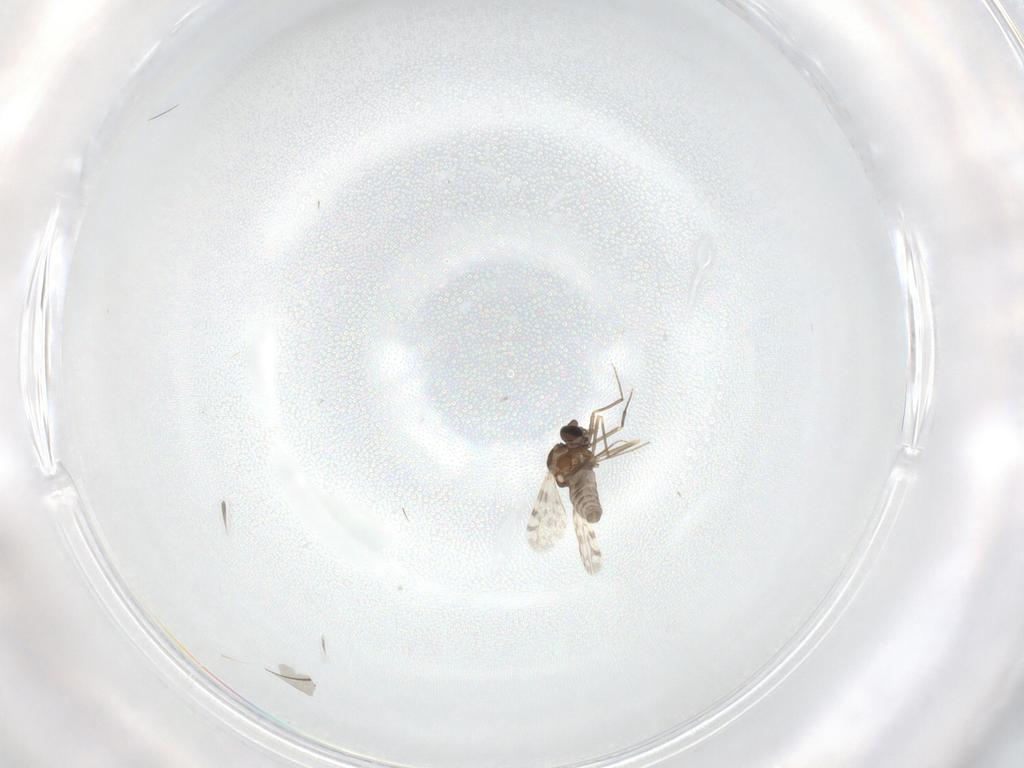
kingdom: Animalia
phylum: Arthropoda
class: Insecta
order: Diptera
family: Ceratopogonidae
